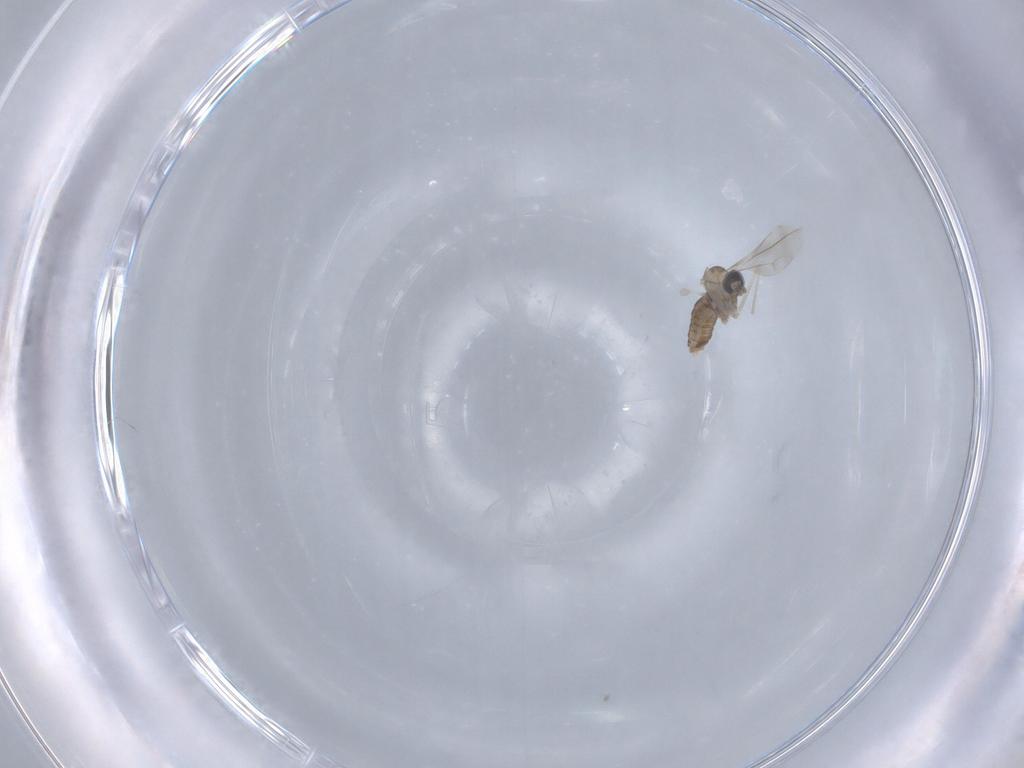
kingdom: Animalia
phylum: Arthropoda
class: Insecta
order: Diptera
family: Cecidomyiidae
